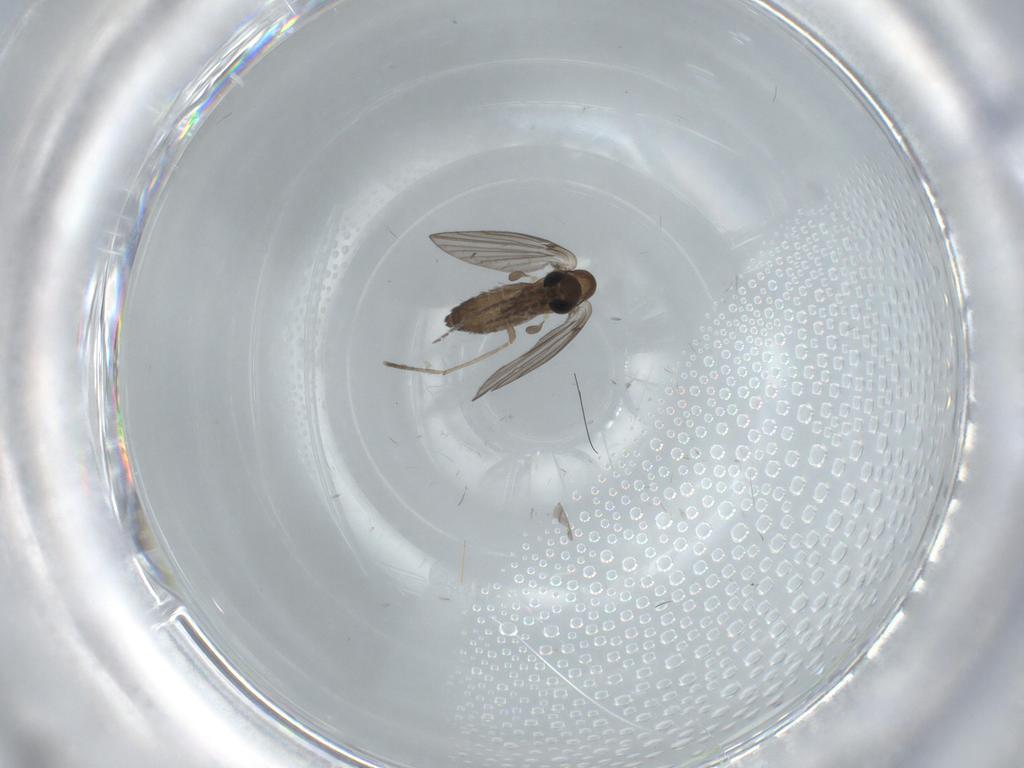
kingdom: Animalia
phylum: Arthropoda
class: Insecta
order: Diptera
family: Psychodidae
